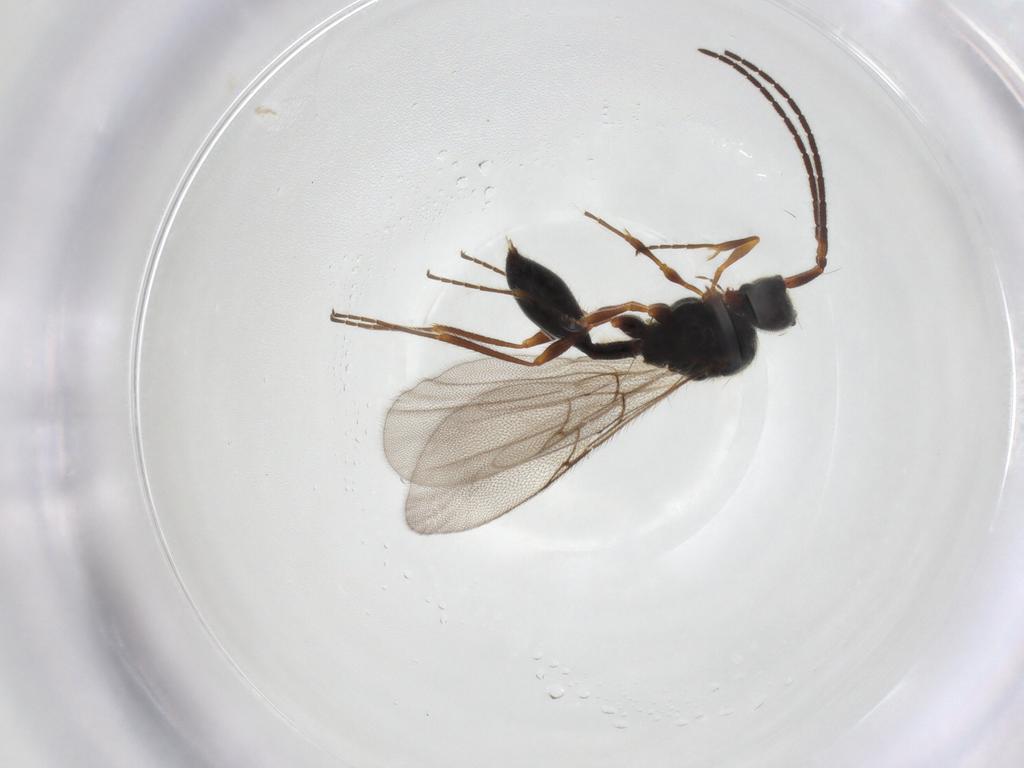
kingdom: Animalia
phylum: Arthropoda
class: Insecta
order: Hymenoptera
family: Diapriidae
